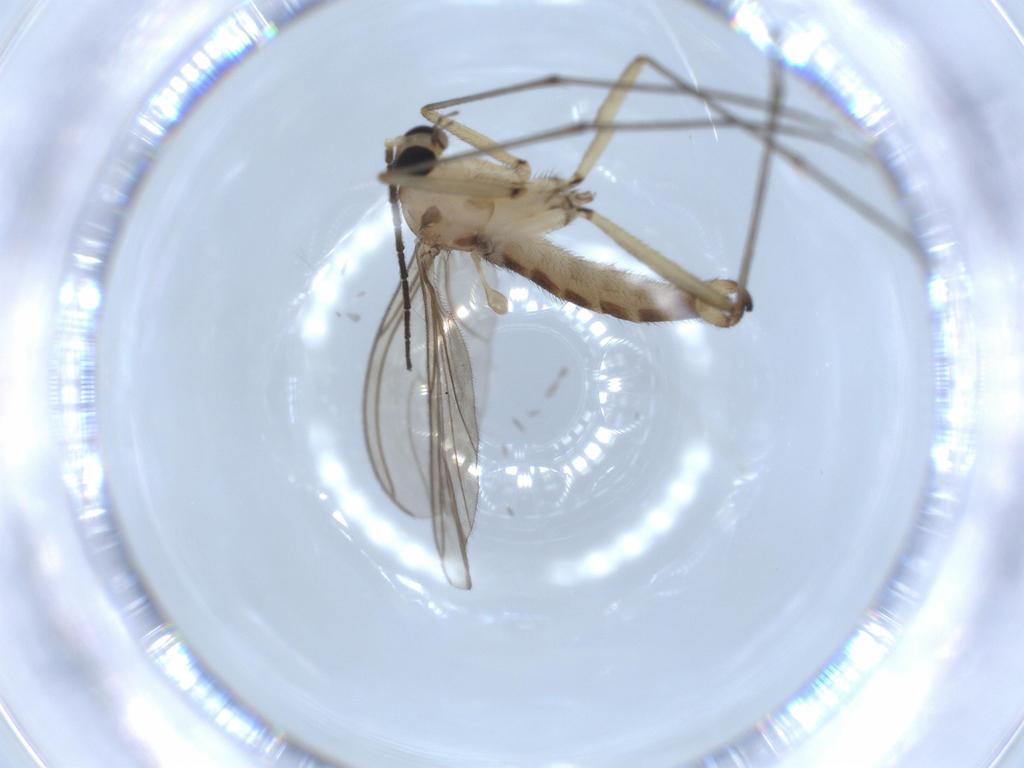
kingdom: Animalia
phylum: Arthropoda
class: Insecta
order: Diptera
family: Sciaridae
